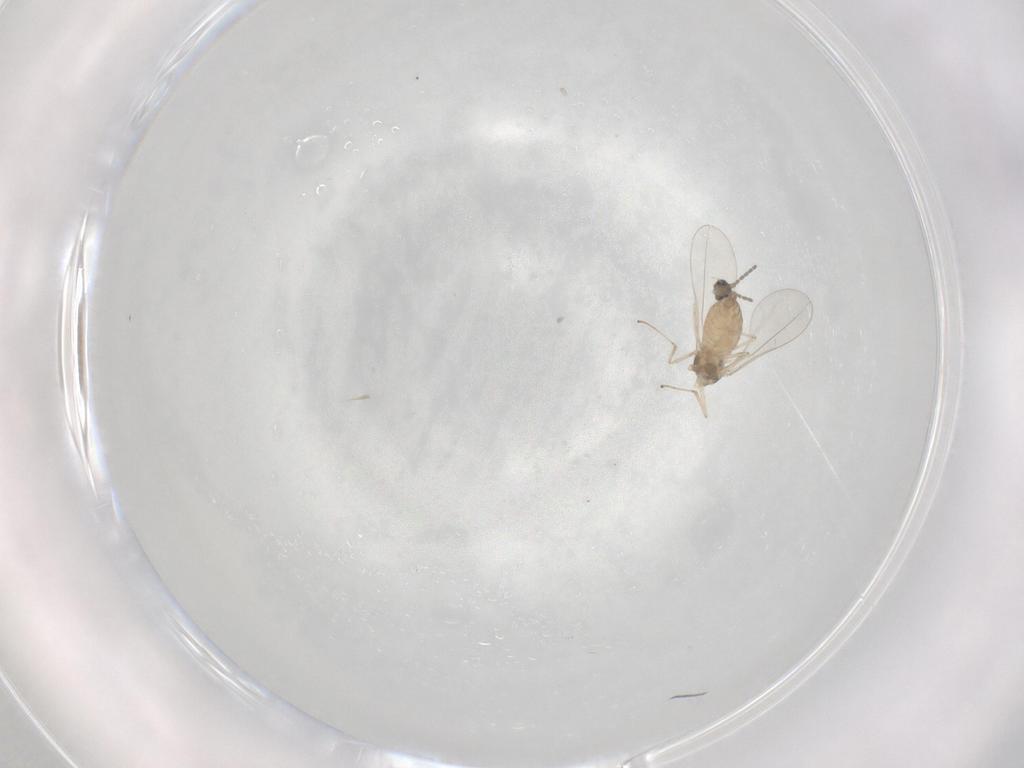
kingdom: Animalia
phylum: Arthropoda
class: Insecta
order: Diptera
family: Cecidomyiidae
